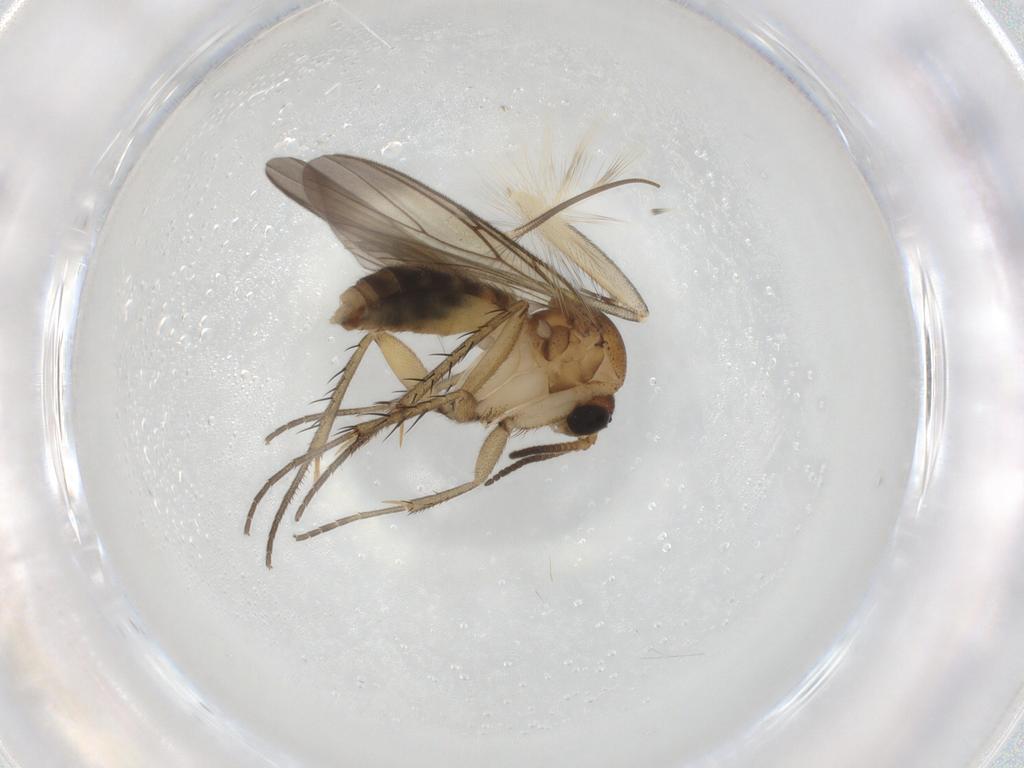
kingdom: Animalia
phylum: Arthropoda
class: Insecta
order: Diptera
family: Mycetophilidae
